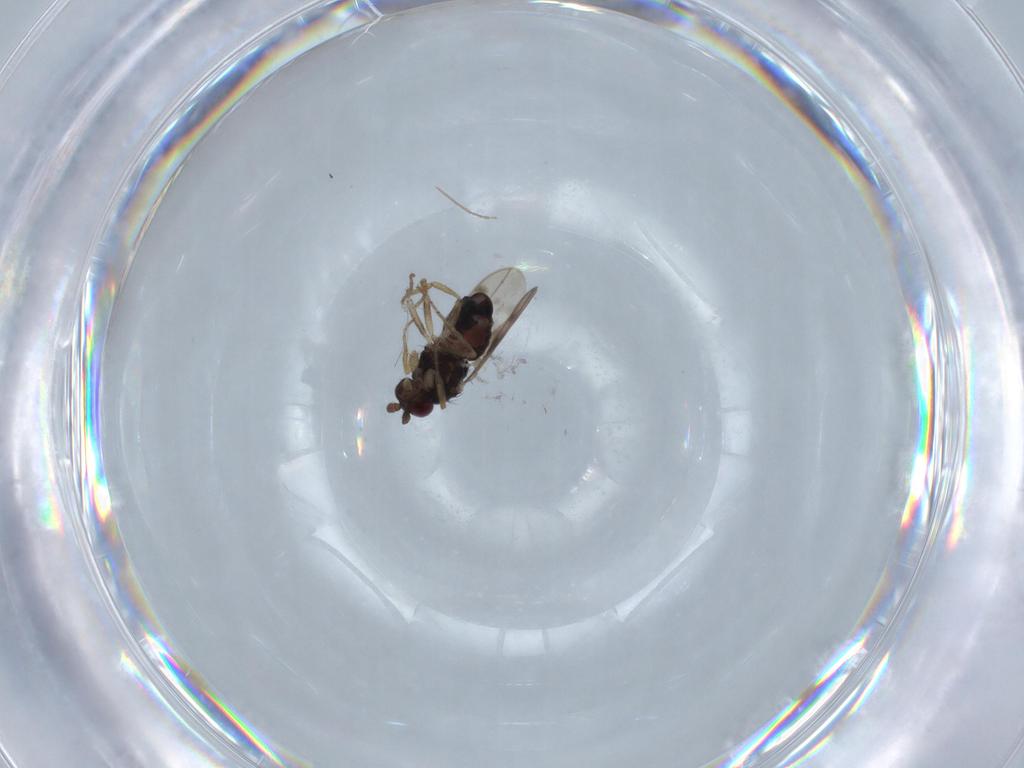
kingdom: Animalia
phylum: Arthropoda
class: Insecta
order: Diptera
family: Sphaeroceridae
